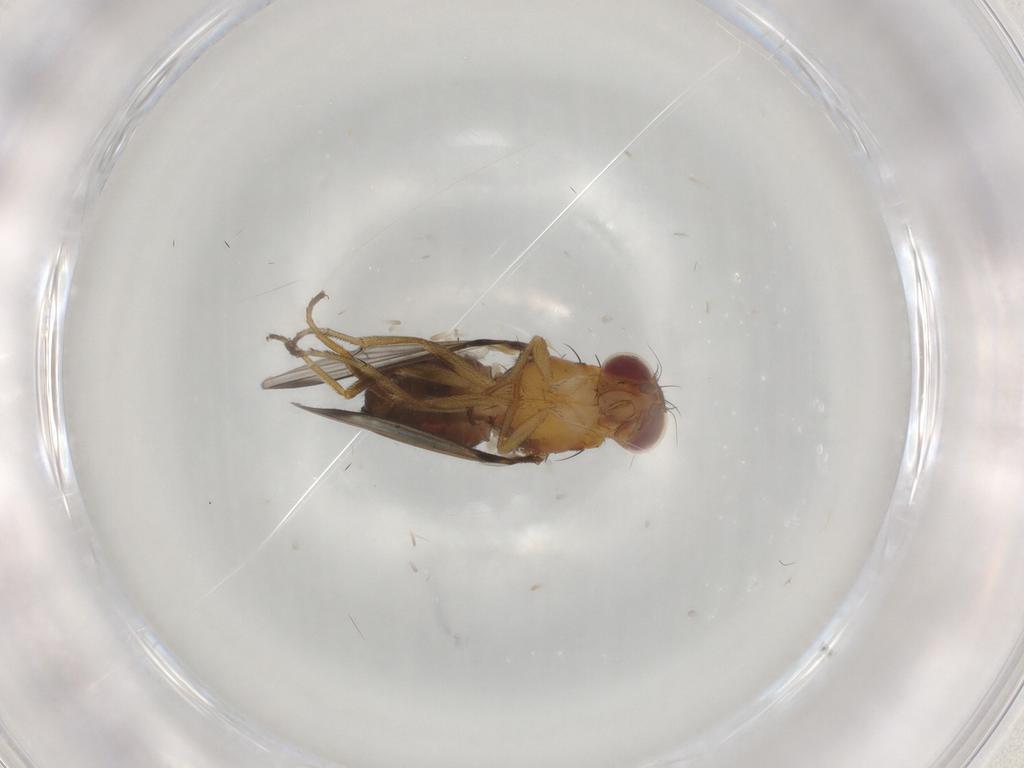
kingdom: Animalia
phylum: Arthropoda
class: Insecta
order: Diptera
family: Piophilidae
